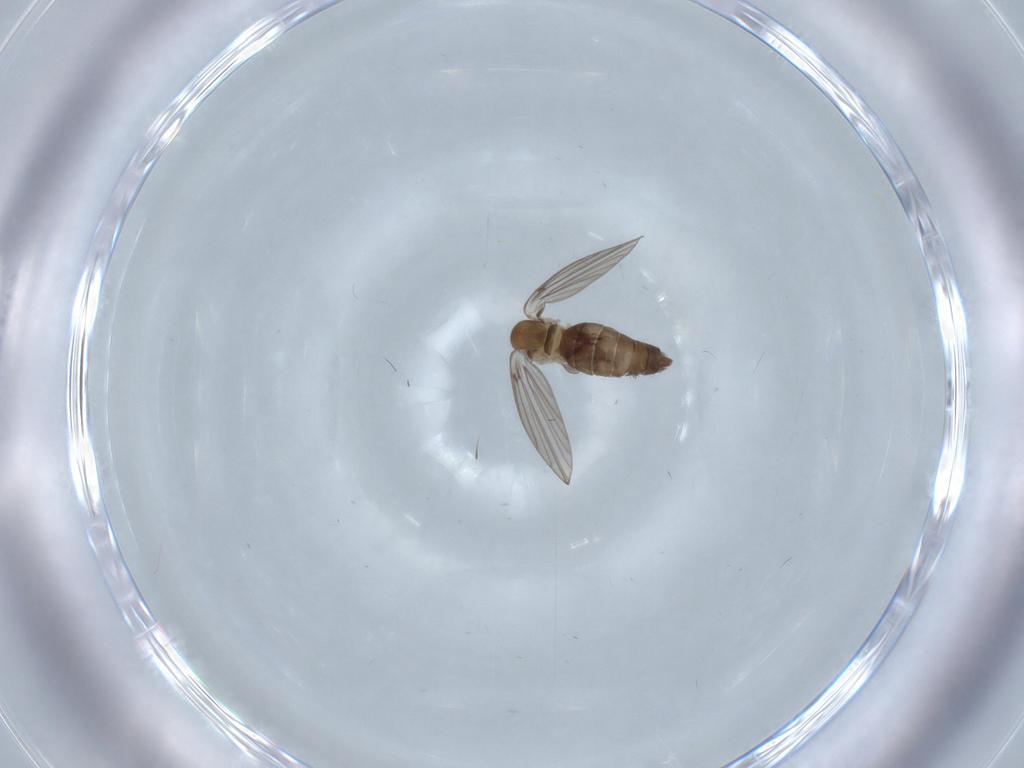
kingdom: Animalia
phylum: Arthropoda
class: Insecta
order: Diptera
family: Psychodidae
